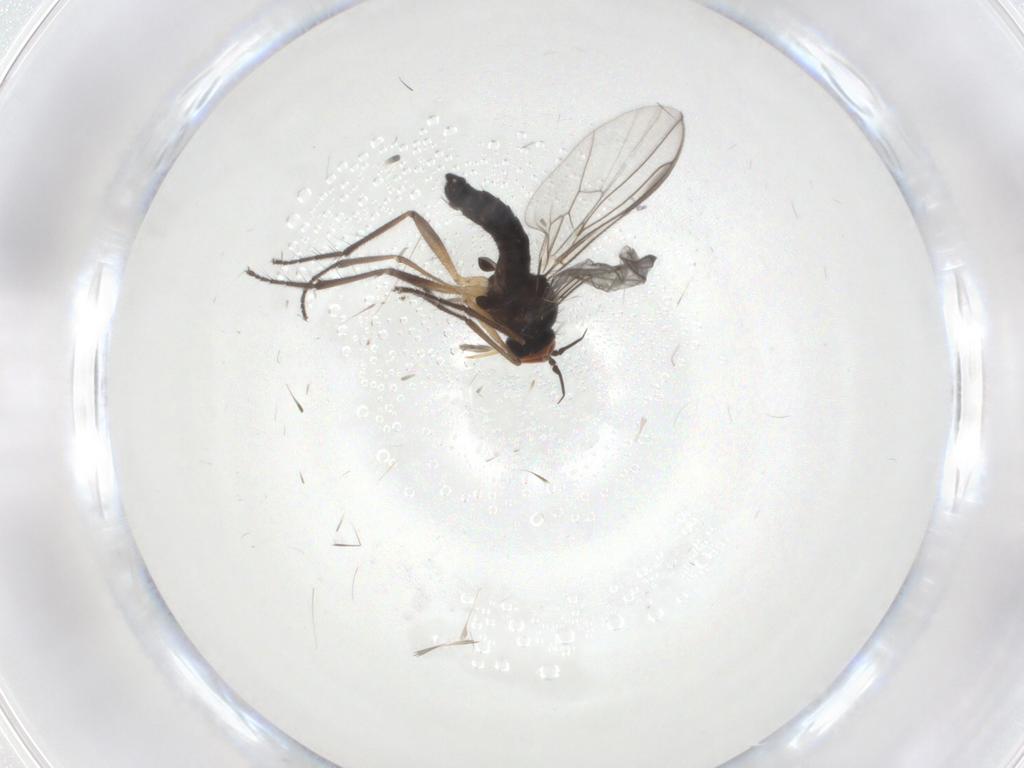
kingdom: Animalia
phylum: Arthropoda
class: Insecta
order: Diptera
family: Empididae
